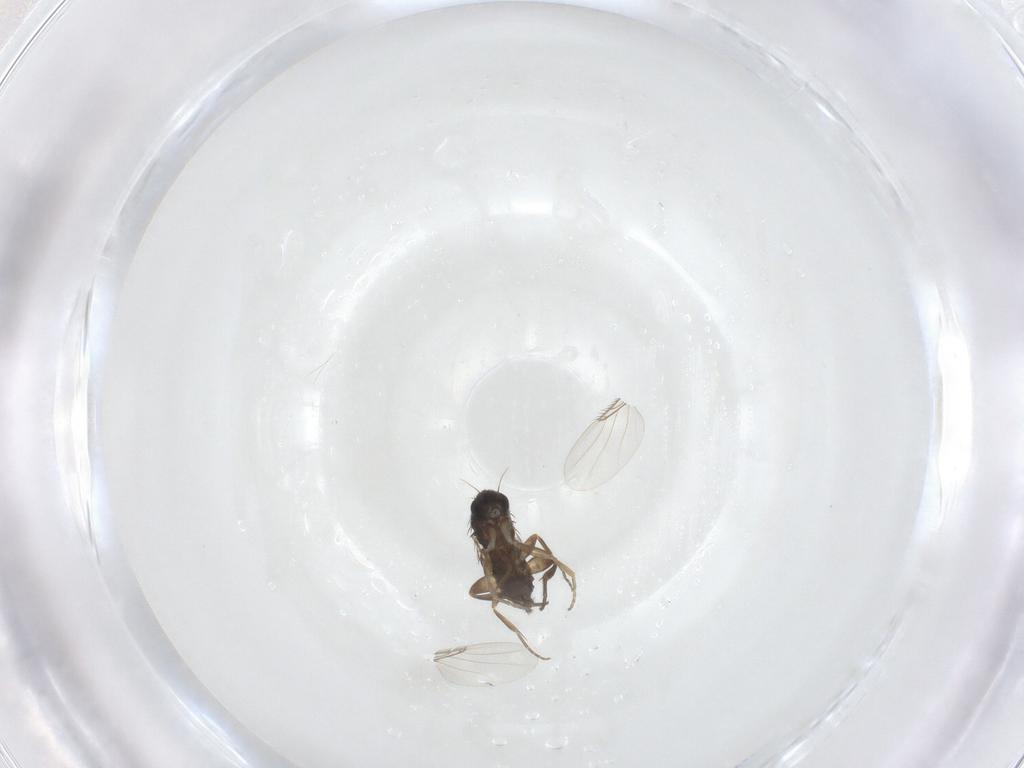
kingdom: Animalia
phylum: Arthropoda
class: Insecta
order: Diptera
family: Phoridae
